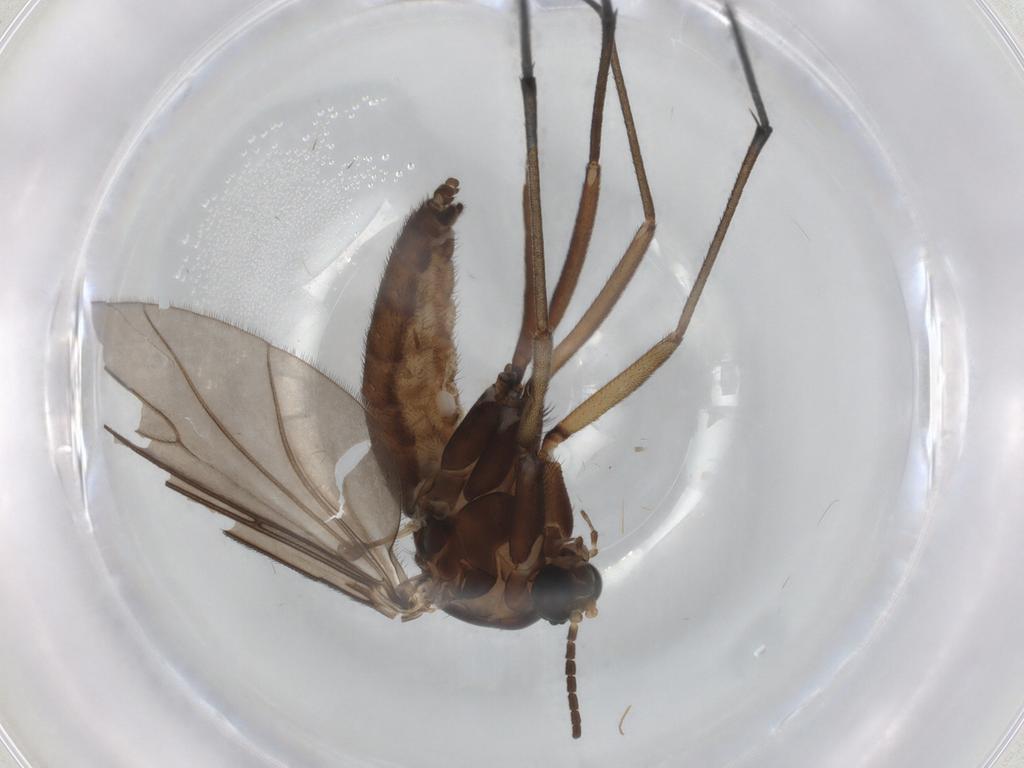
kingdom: Animalia
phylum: Arthropoda
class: Insecta
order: Diptera
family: Sciaridae
